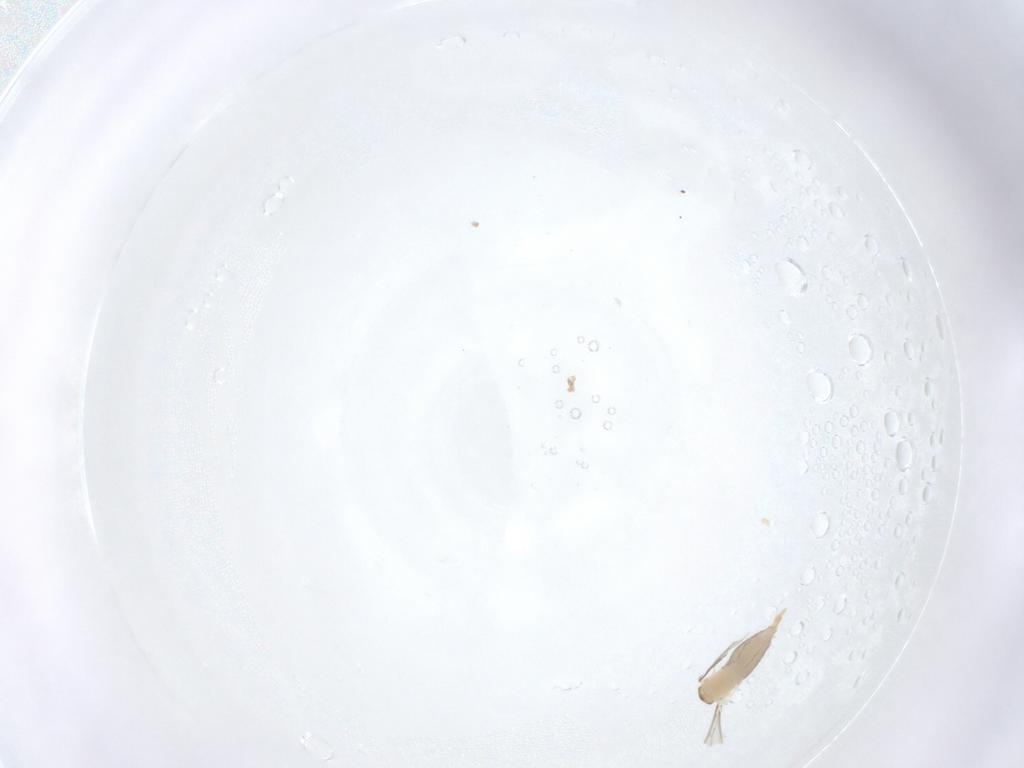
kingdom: Animalia
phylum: Arthropoda
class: Insecta
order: Diptera
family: Cecidomyiidae
